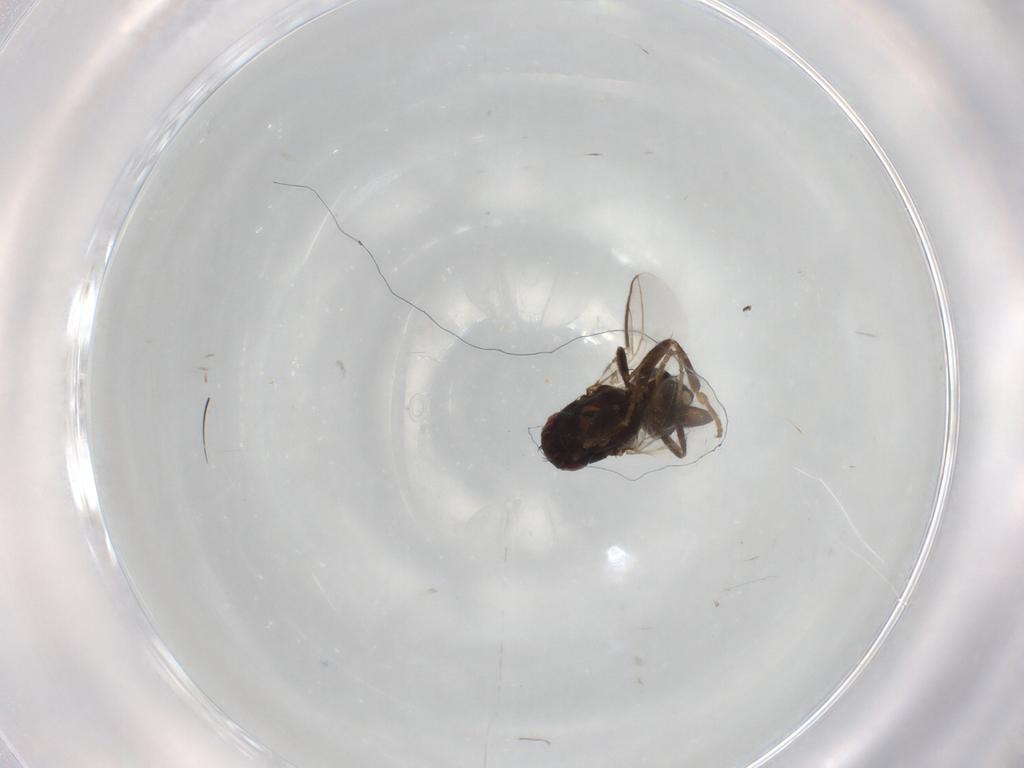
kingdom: Animalia
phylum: Arthropoda
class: Insecta
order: Diptera
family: Sphaeroceridae
